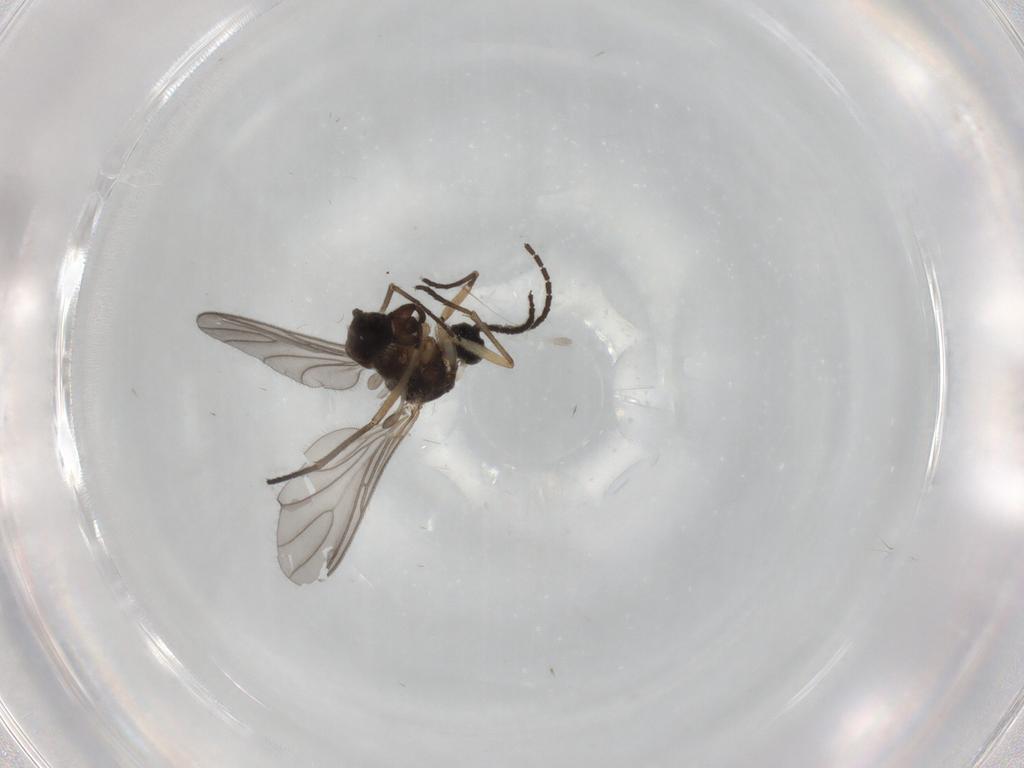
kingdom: Animalia
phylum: Arthropoda
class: Insecta
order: Diptera
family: Sciaridae
